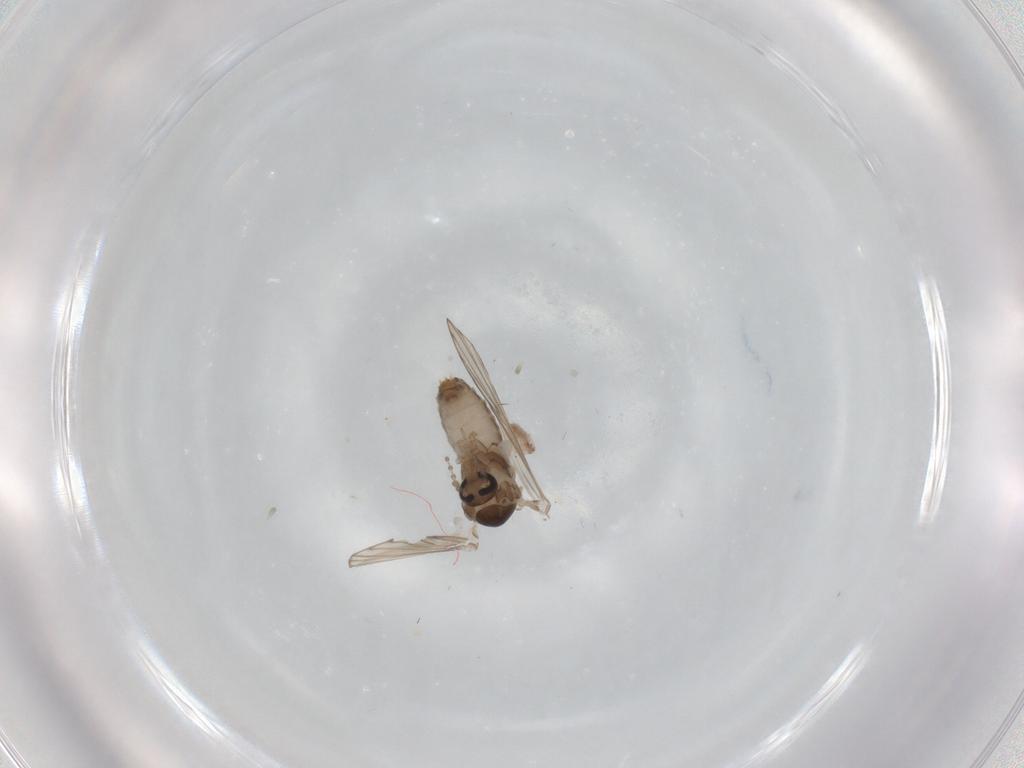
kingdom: Animalia
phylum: Arthropoda
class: Insecta
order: Diptera
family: Psychodidae
